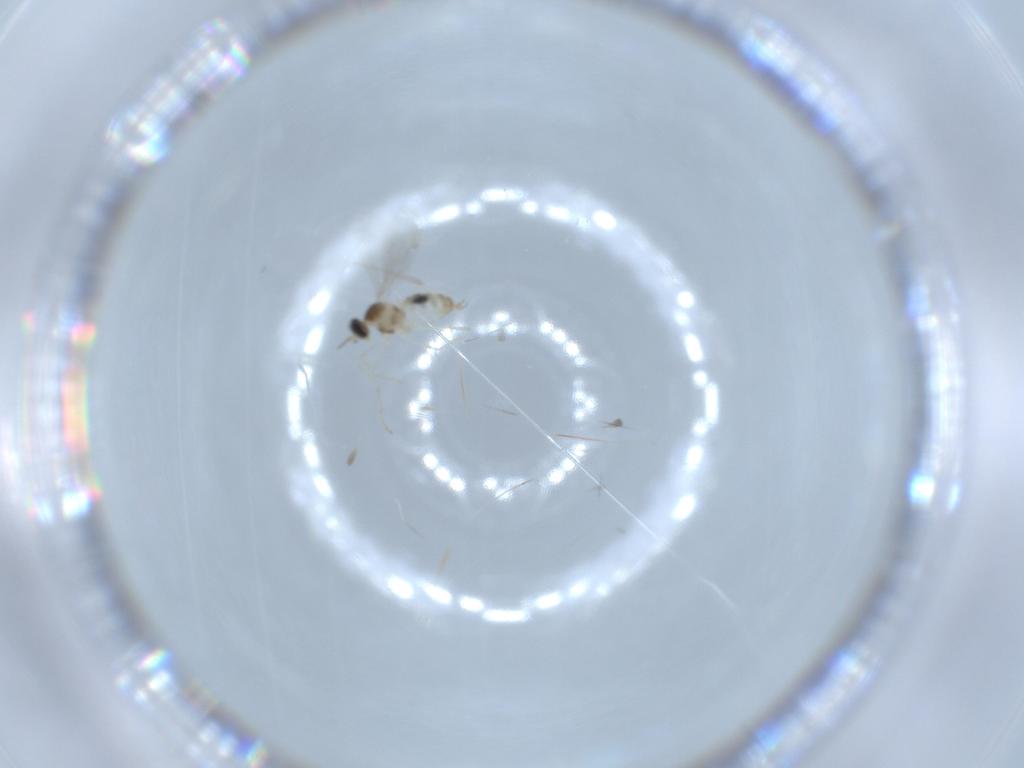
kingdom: Animalia
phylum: Arthropoda
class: Insecta
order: Diptera
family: Cecidomyiidae
